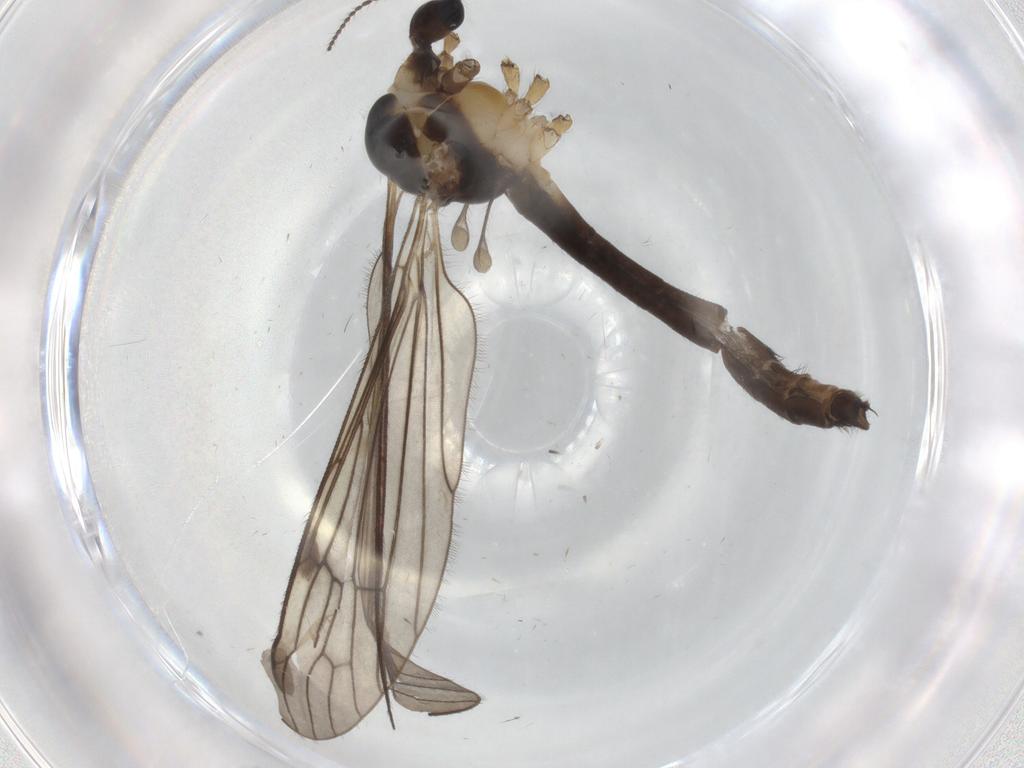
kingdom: Animalia
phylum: Arthropoda
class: Insecta
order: Diptera
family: Limoniidae
